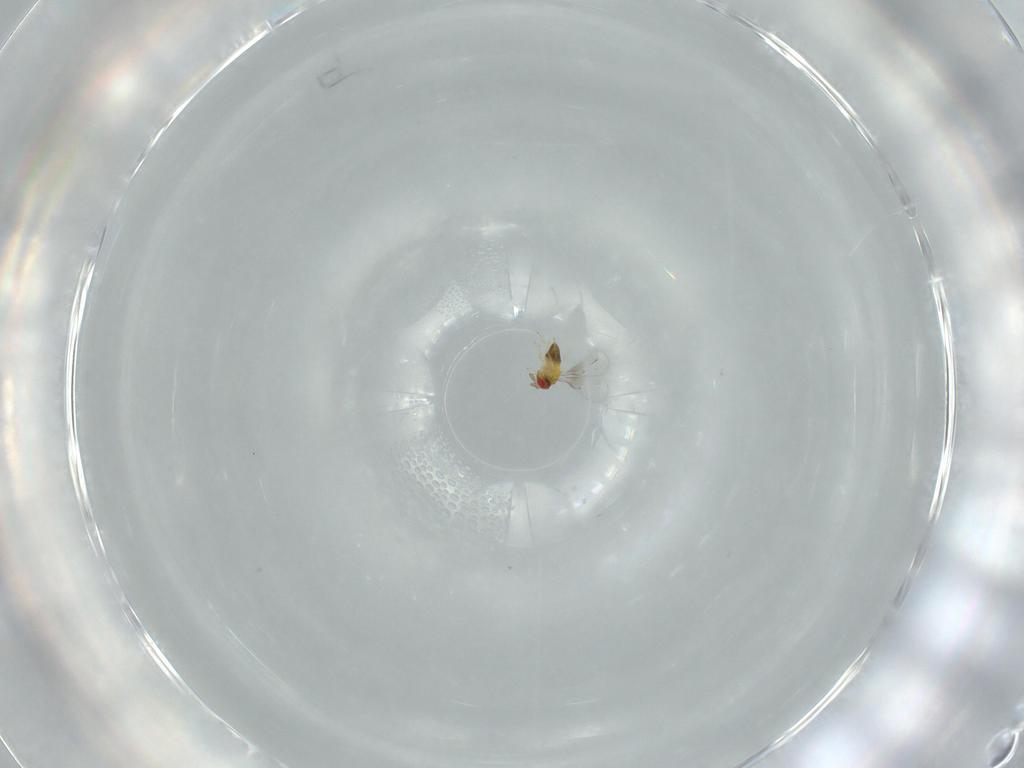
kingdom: Animalia
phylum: Arthropoda
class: Insecta
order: Hymenoptera
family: Trichogrammatidae
